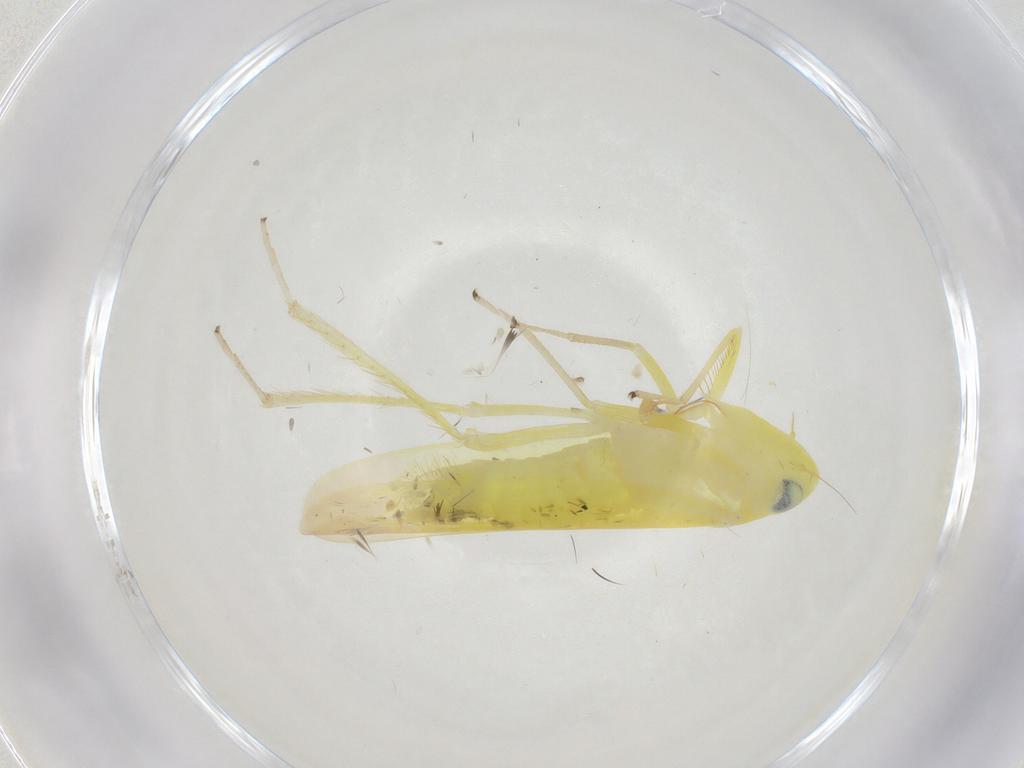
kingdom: Animalia
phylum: Arthropoda
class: Insecta
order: Hemiptera
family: Cicadellidae
